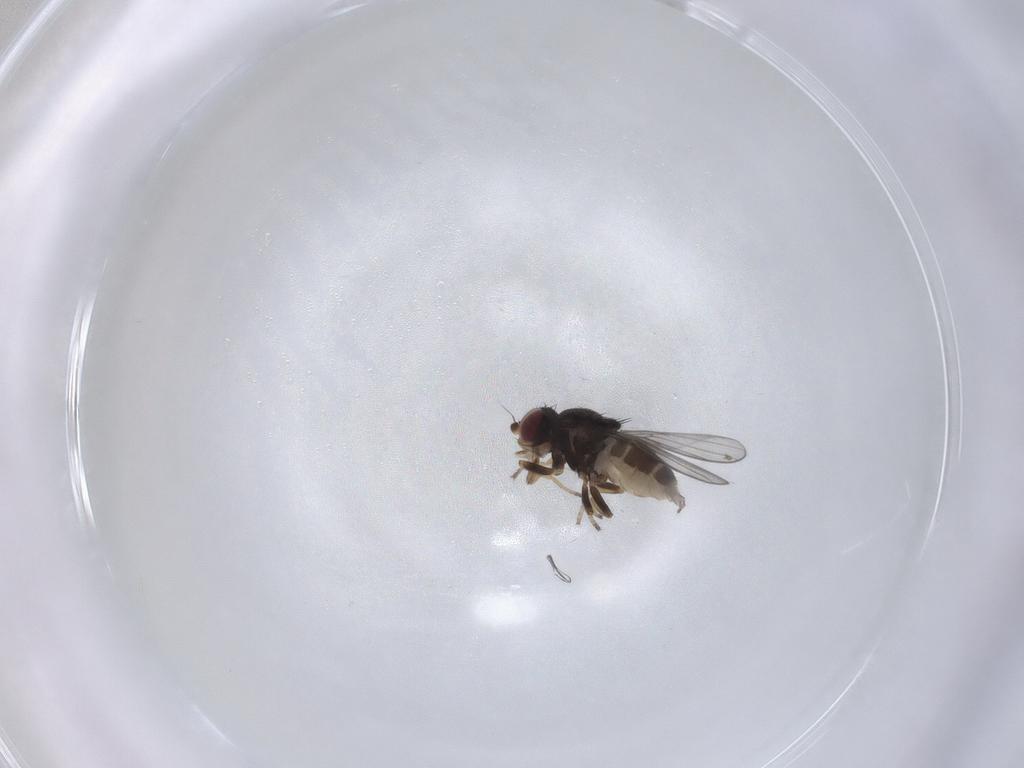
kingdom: Animalia
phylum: Arthropoda
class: Insecta
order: Diptera
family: Chloropidae
